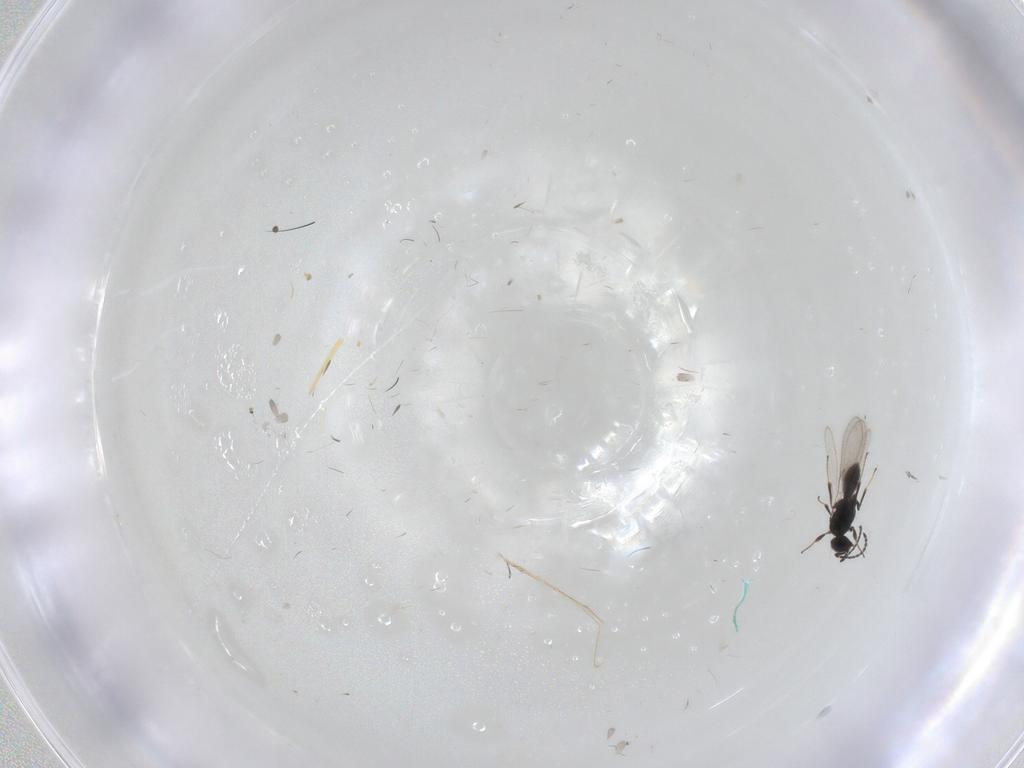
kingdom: Animalia
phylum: Arthropoda
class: Insecta
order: Hymenoptera
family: Scelionidae
